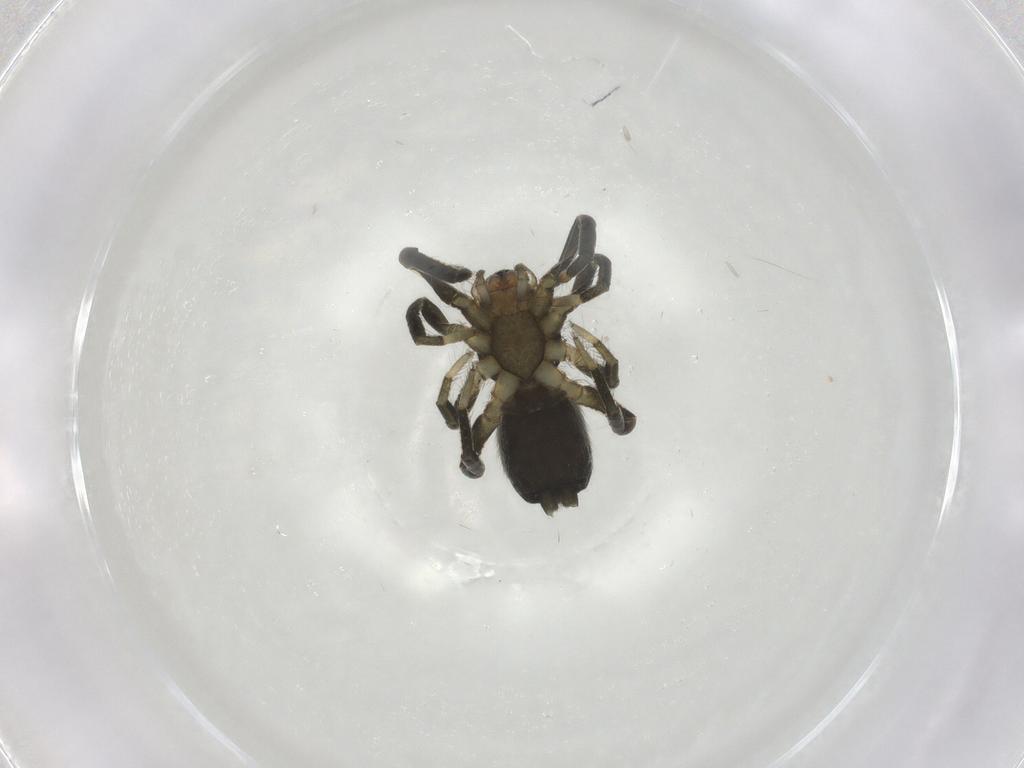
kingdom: Animalia
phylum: Arthropoda
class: Arachnida
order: Araneae
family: Gnaphosidae
